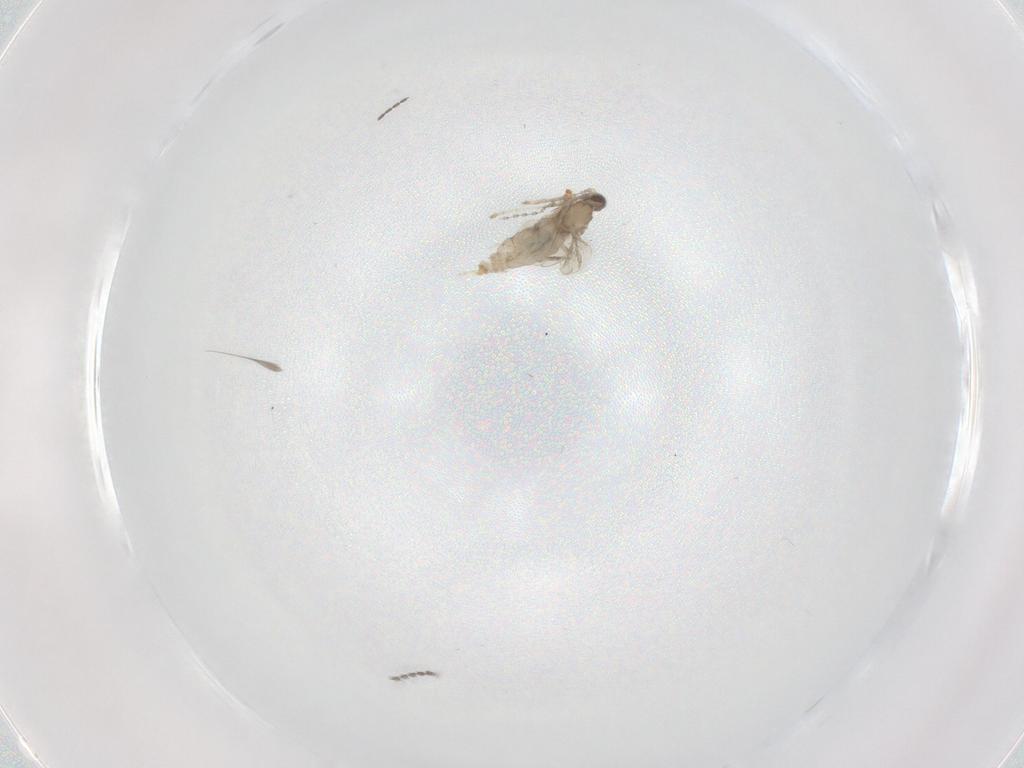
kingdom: Animalia
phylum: Arthropoda
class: Insecta
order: Diptera
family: Cecidomyiidae
